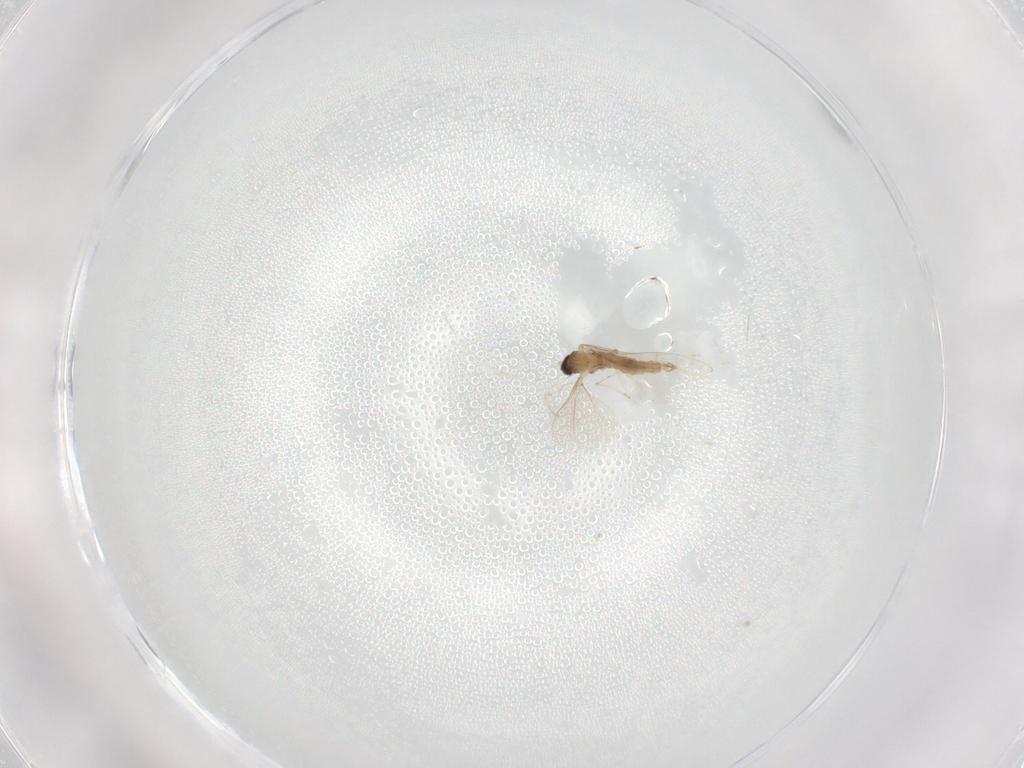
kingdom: Animalia
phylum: Arthropoda
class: Insecta
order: Diptera
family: Cecidomyiidae
